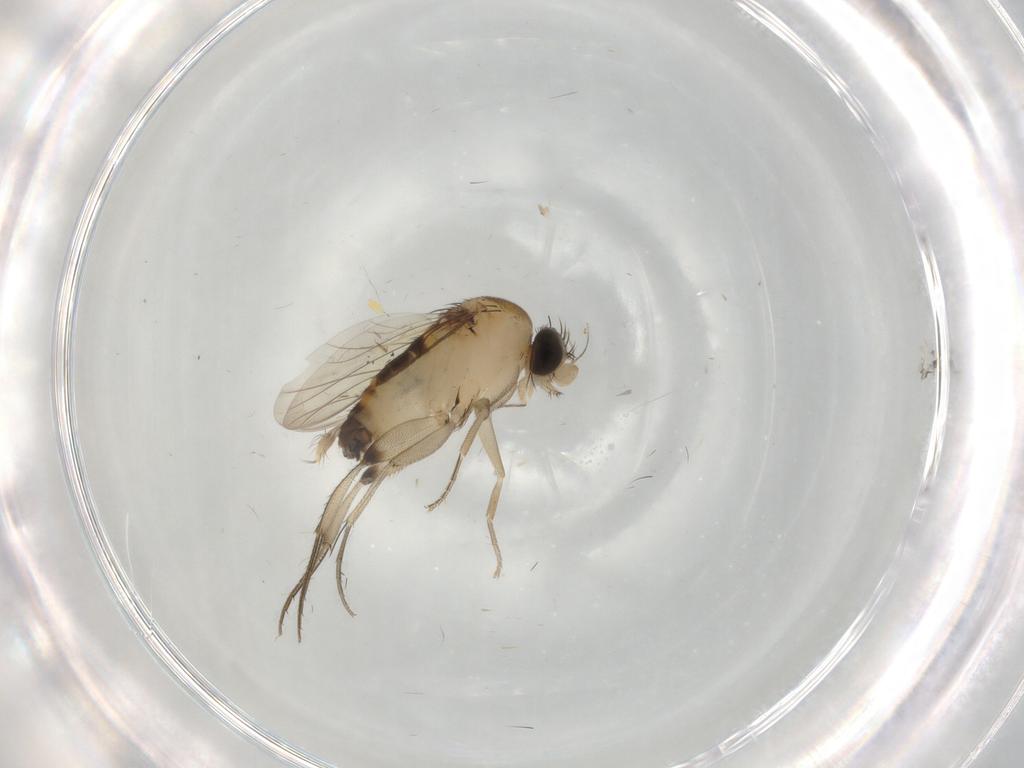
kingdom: Animalia
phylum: Arthropoda
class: Insecta
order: Diptera
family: Phoridae
